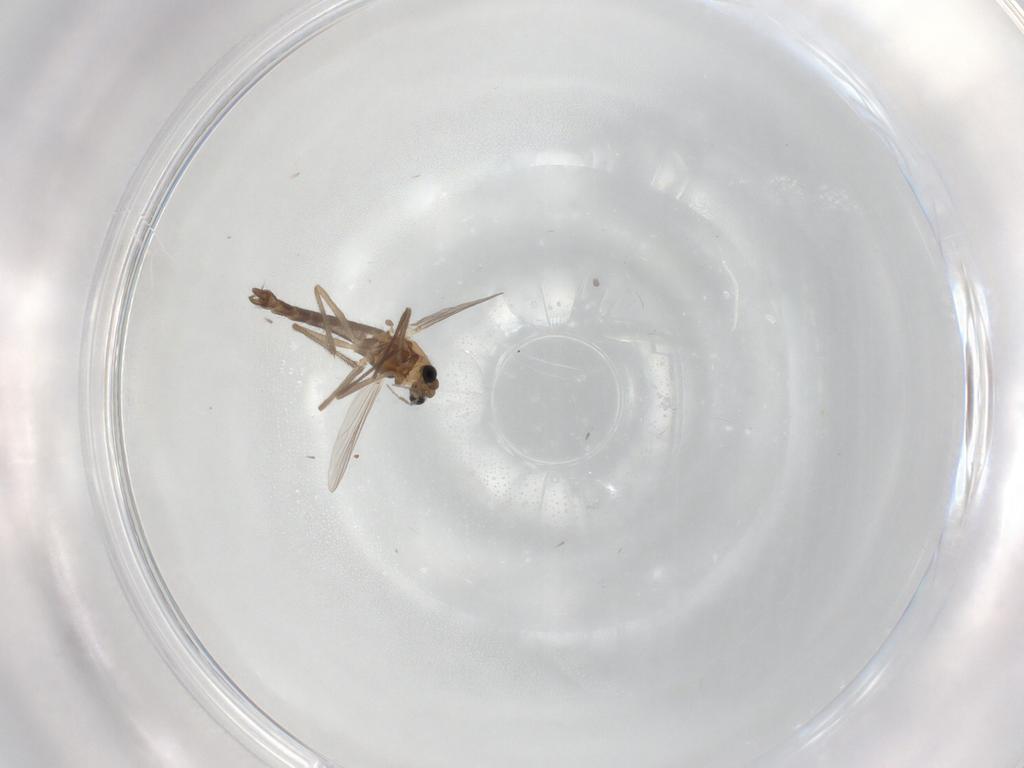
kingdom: Animalia
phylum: Arthropoda
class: Insecta
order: Diptera
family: Chironomidae
